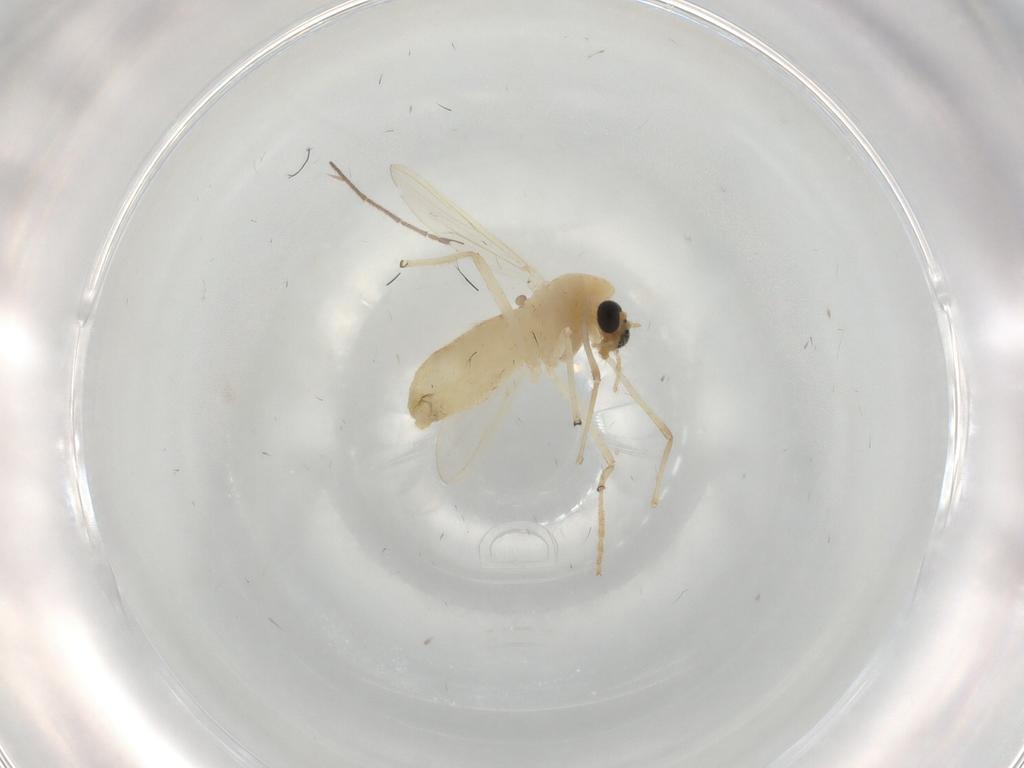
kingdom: Animalia
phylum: Arthropoda
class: Insecta
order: Diptera
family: Chironomidae
